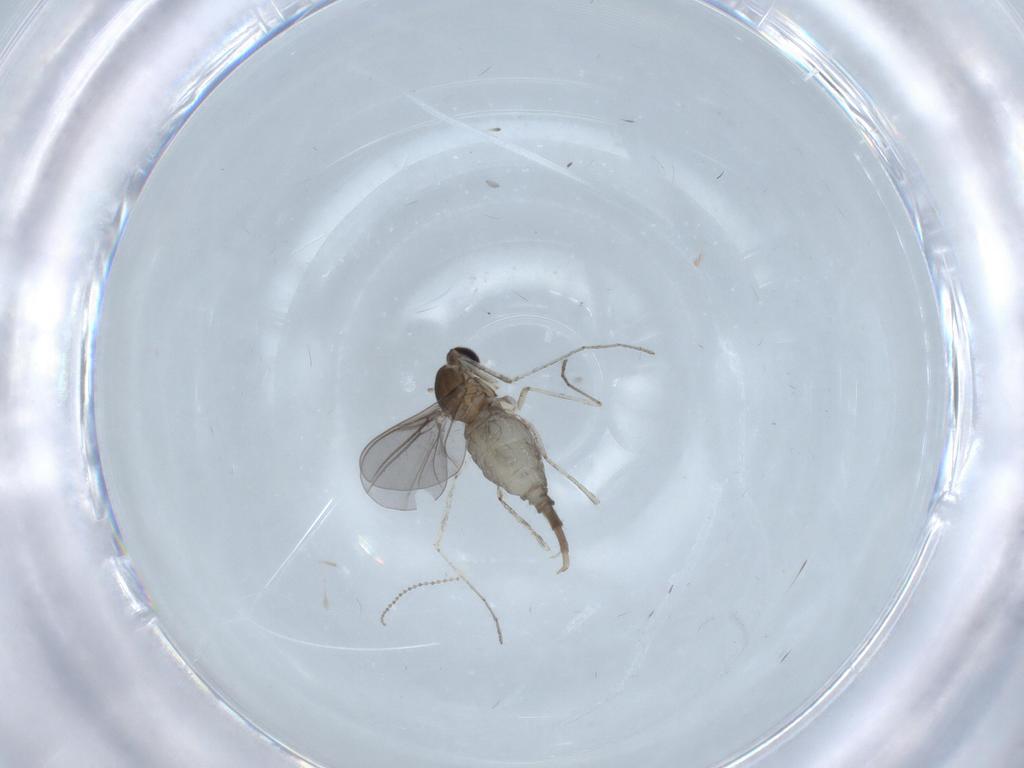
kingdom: Animalia
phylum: Arthropoda
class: Insecta
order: Diptera
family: Cecidomyiidae
